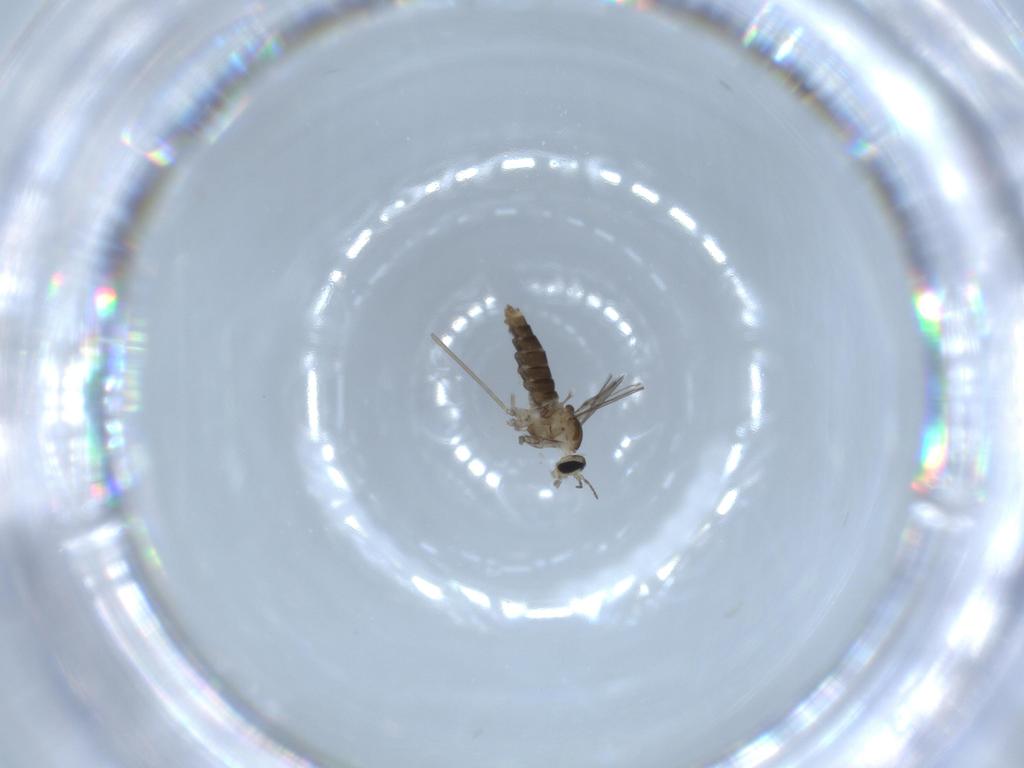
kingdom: Animalia
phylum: Arthropoda
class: Insecta
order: Diptera
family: Cecidomyiidae
